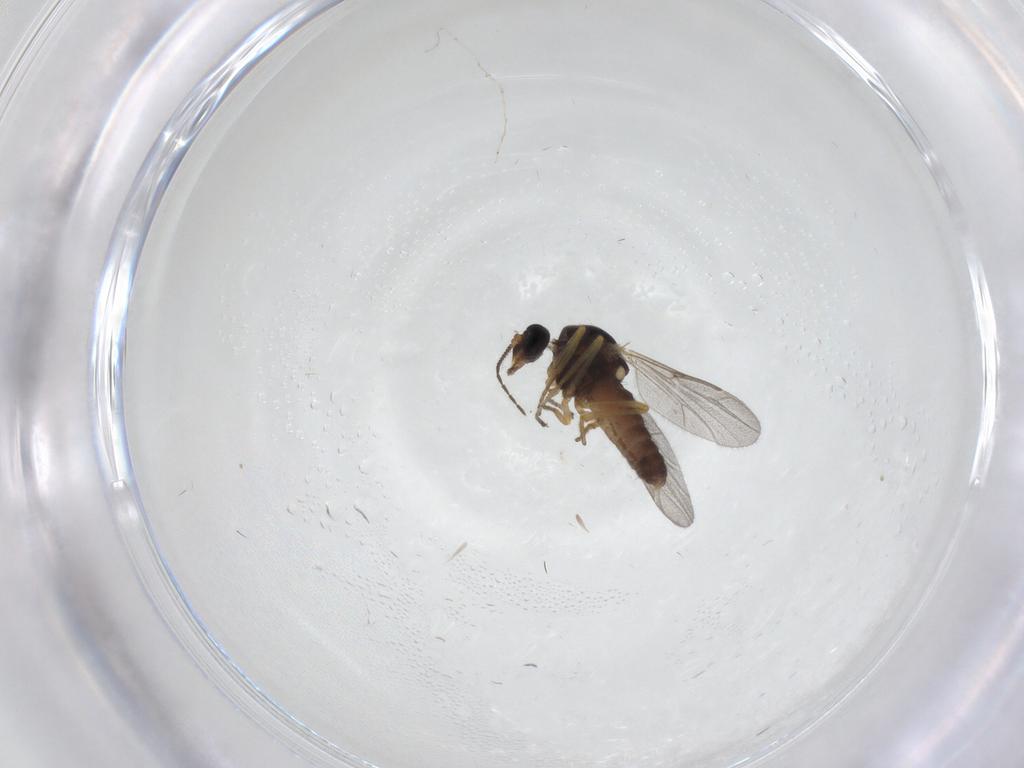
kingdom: Animalia
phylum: Arthropoda
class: Insecta
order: Diptera
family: Ceratopogonidae
